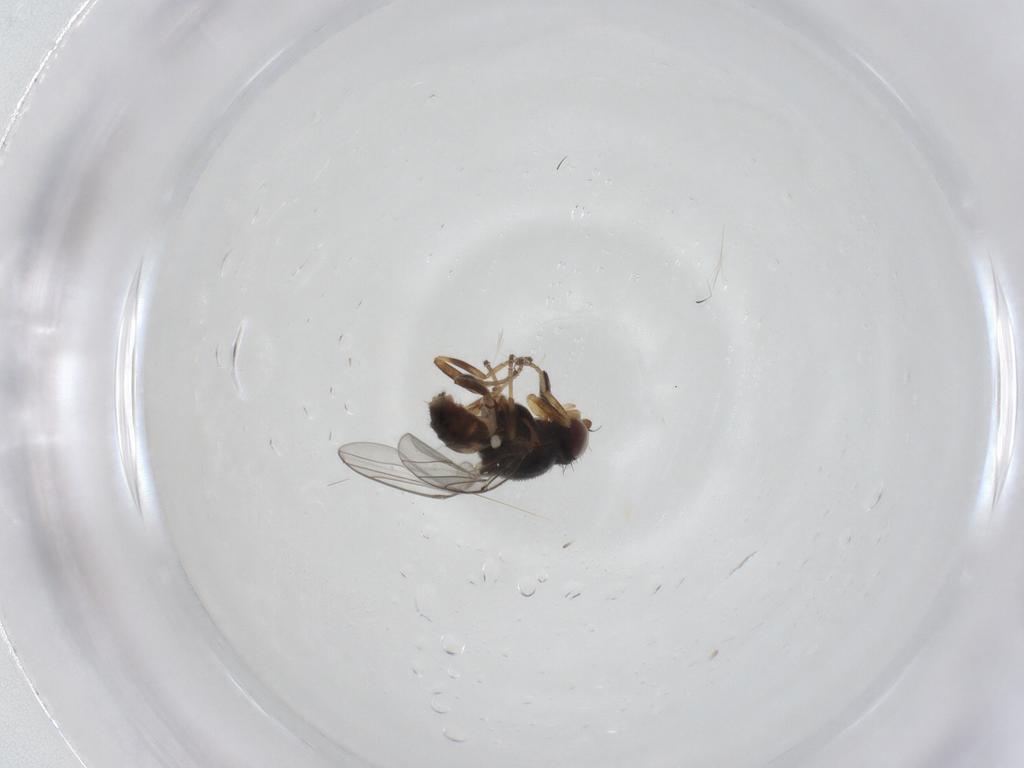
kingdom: Animalia
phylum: Arthropoda
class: Insecta
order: Diptera
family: Chloropidae
